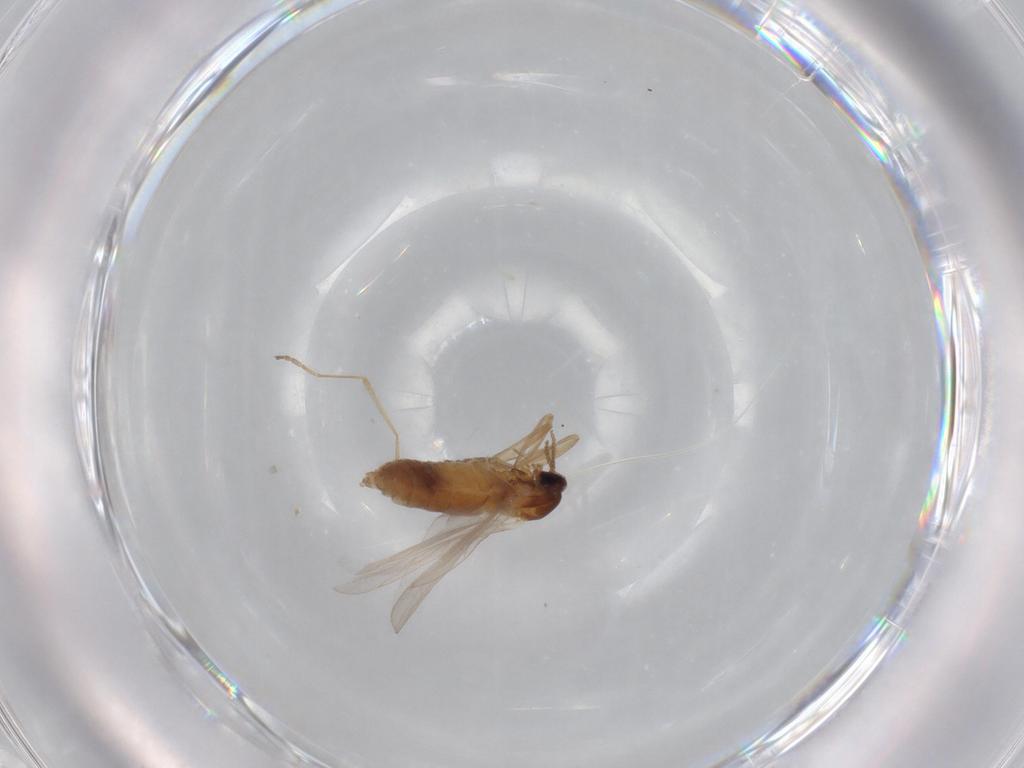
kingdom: Animalia
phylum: Arthropoda
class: Insecta
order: Diptera
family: Cecidomyiidae
